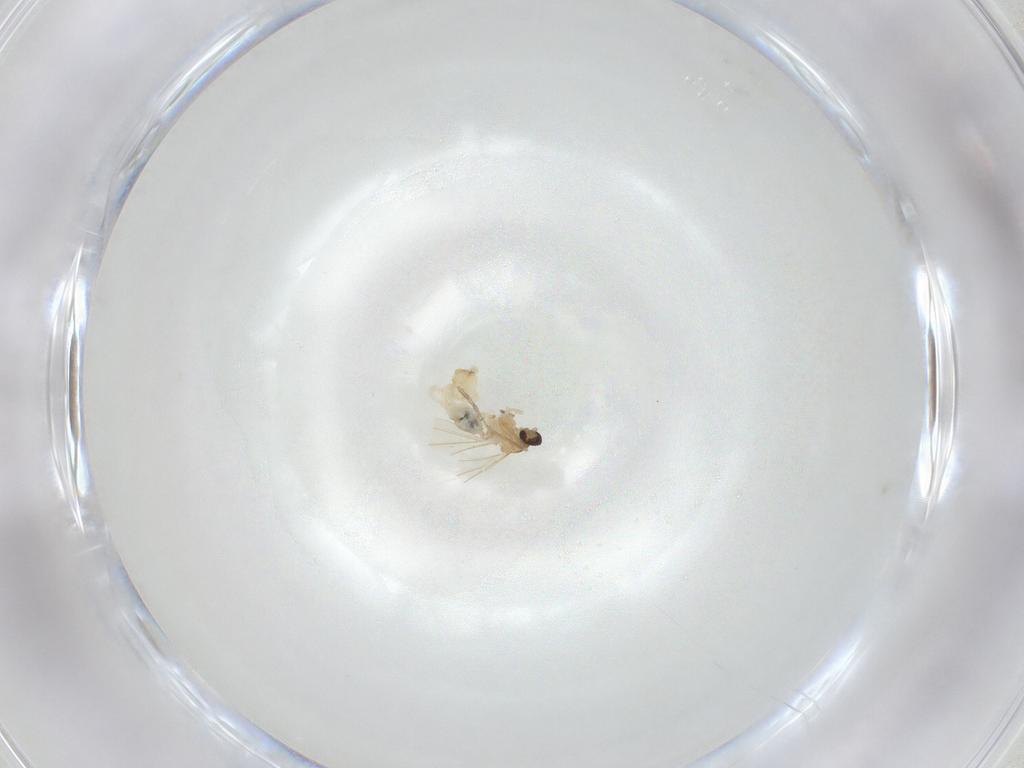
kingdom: Animalia
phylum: Arthropoda
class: Insecta
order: Diptera
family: Cecidomyiidae
